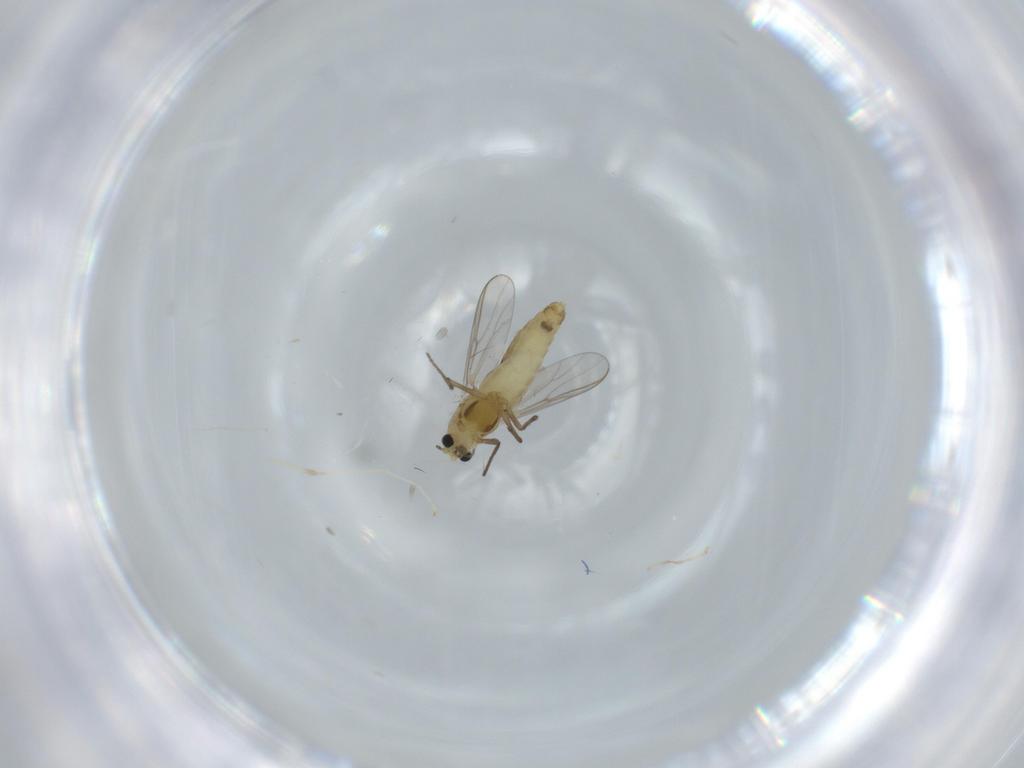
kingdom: Animalia
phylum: Arthropoda
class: Insecta
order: Diptera
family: Chironomidae
